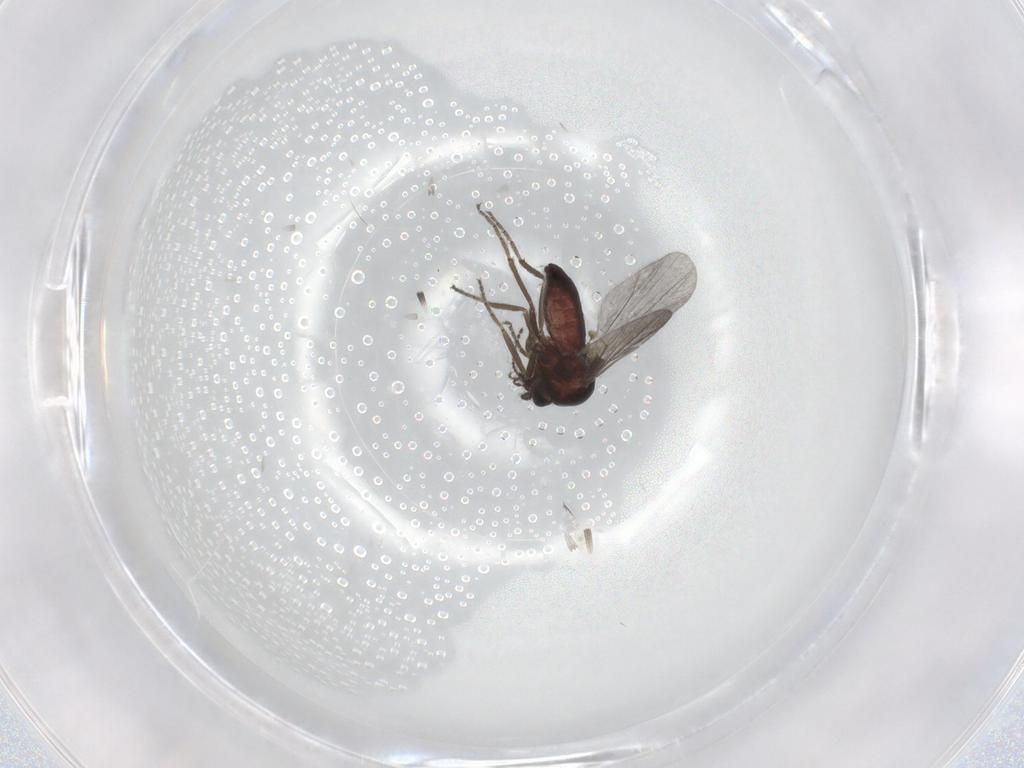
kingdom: Animalia
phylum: Arthropoda
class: Insecta
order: Diptera
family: Ceratopogonidae
